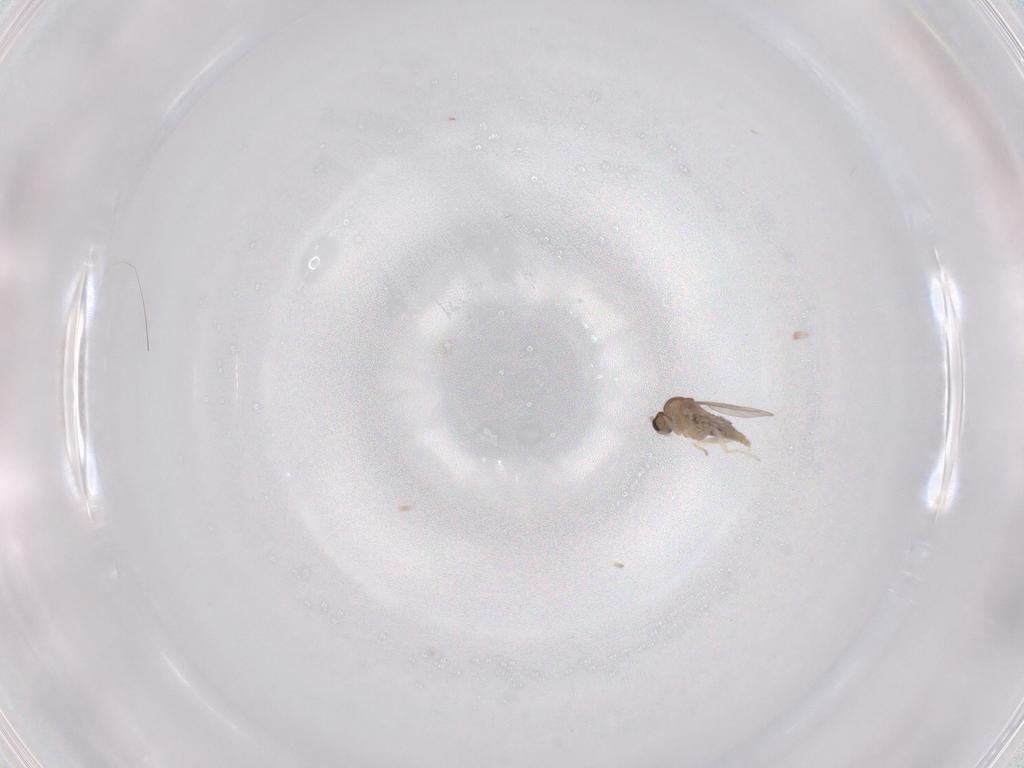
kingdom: Animalia
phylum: Arthropoda
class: Insecta
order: Diptera
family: Cecidomyiidae
